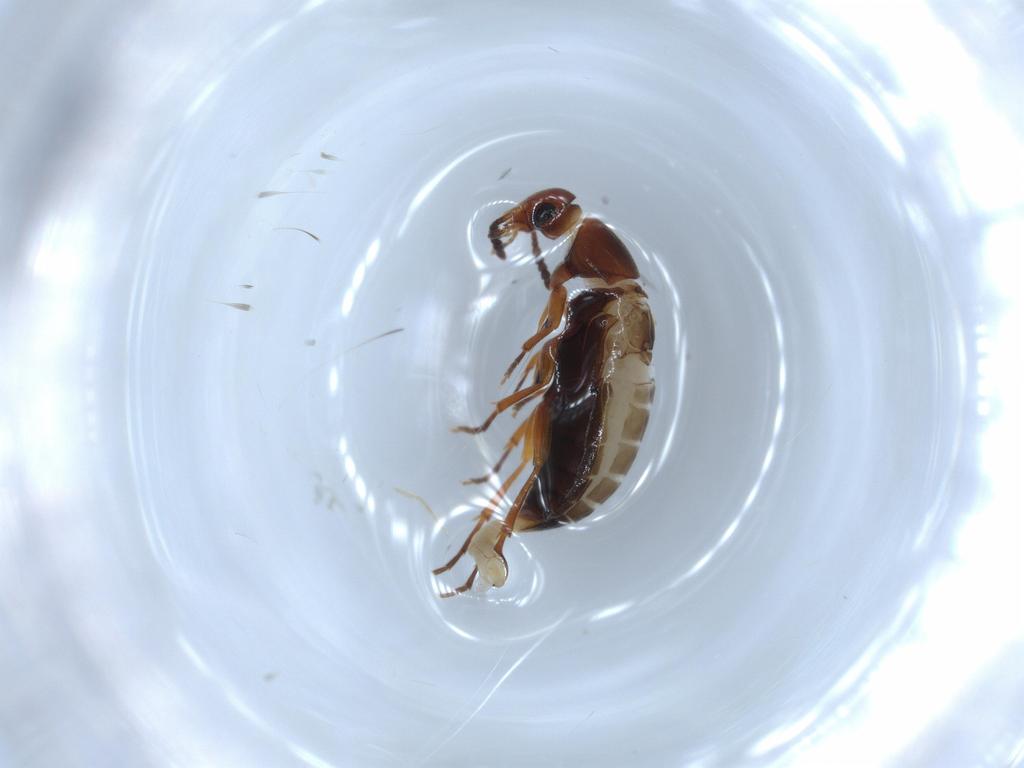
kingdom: Animalia
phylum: Arthropoda
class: Insecta
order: Coleoptera
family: Scraptiidae
